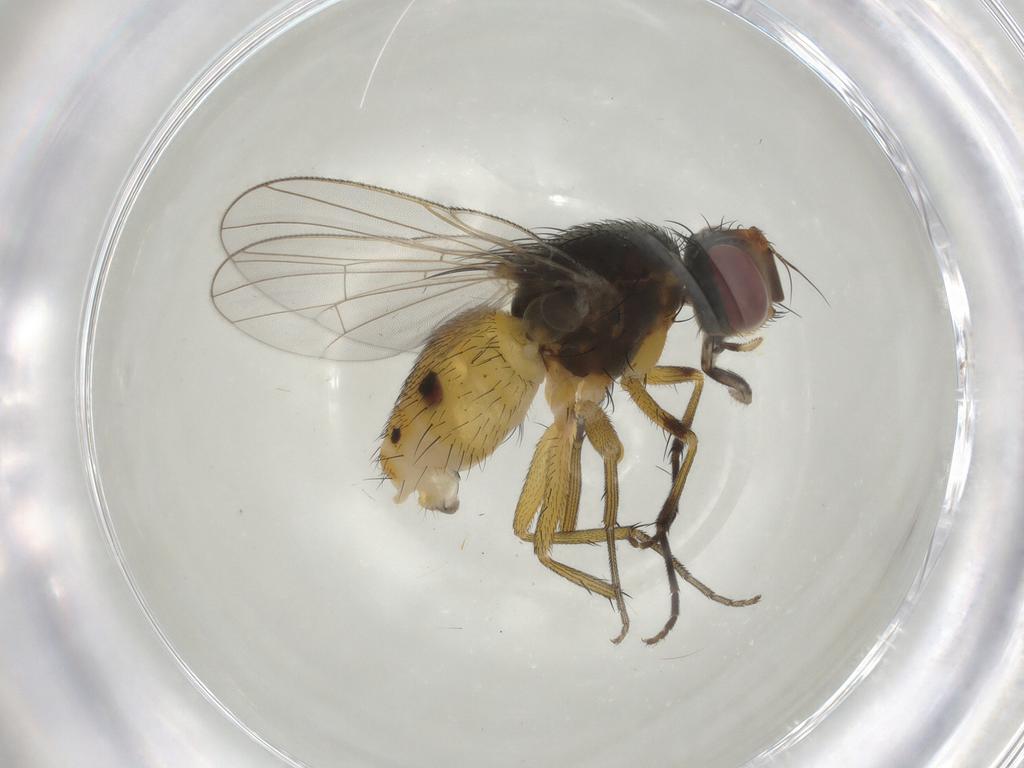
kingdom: Animalia
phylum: Arthropoda
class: Insecta
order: Diptera
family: Muscidae
